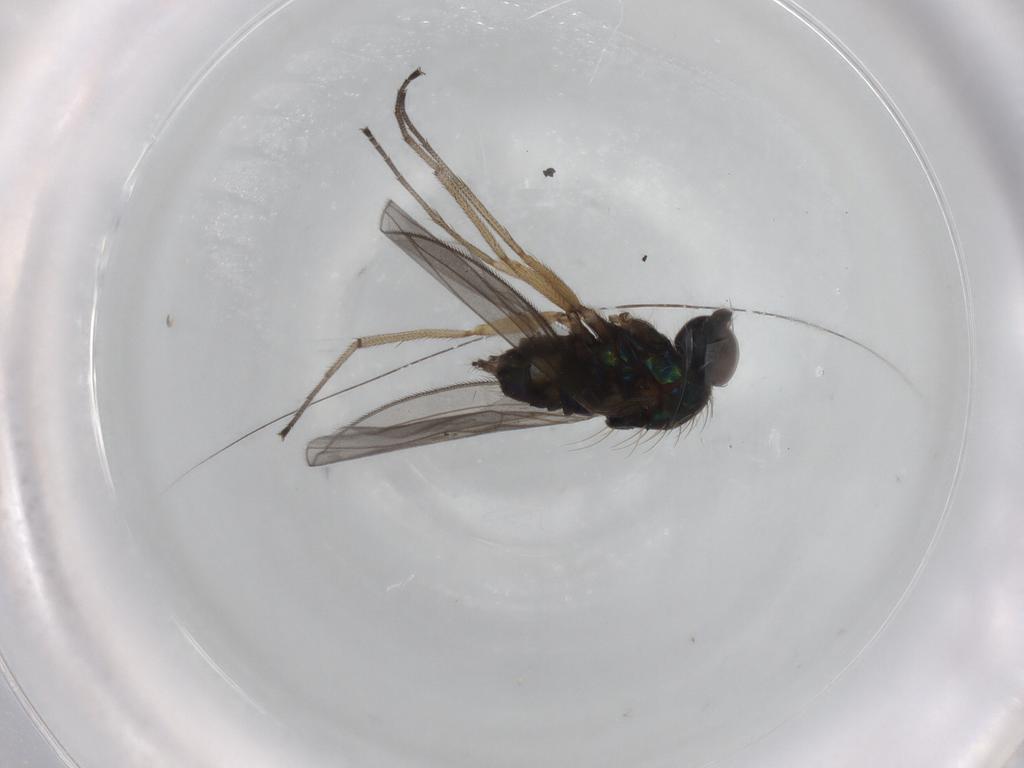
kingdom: Animalia
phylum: Arthropoda
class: Insecta
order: Diptera
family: Dolichopodidae
